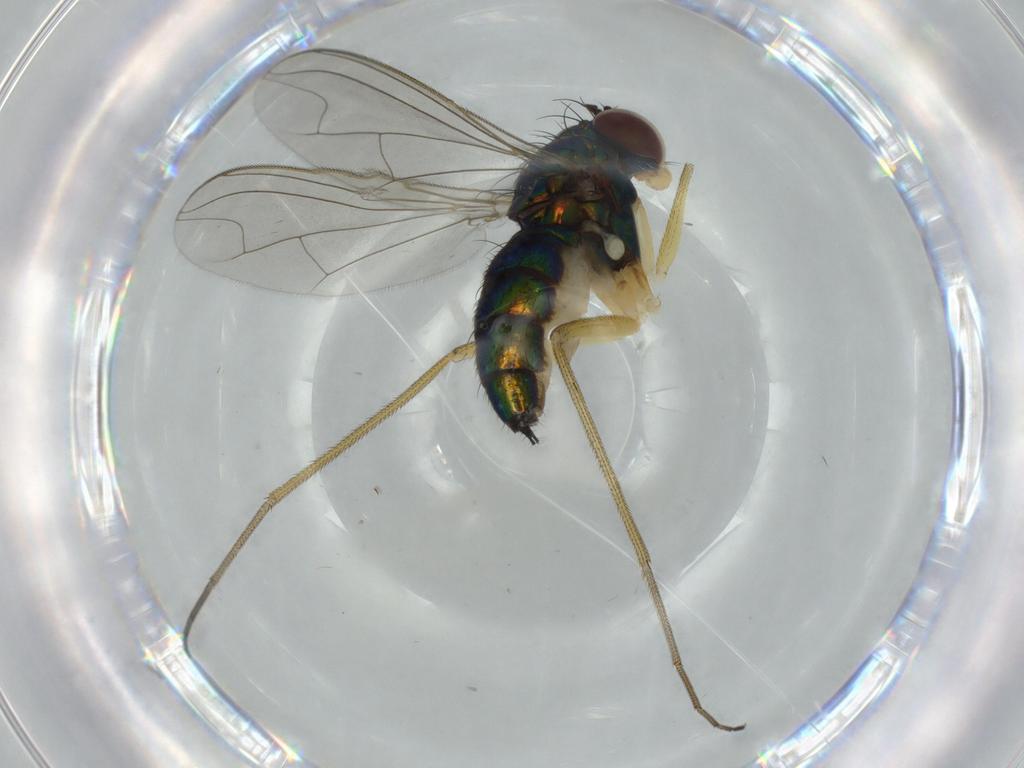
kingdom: Animalia
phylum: Arthropoda
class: Insecta
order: Diptera
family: Dolichopodidae
